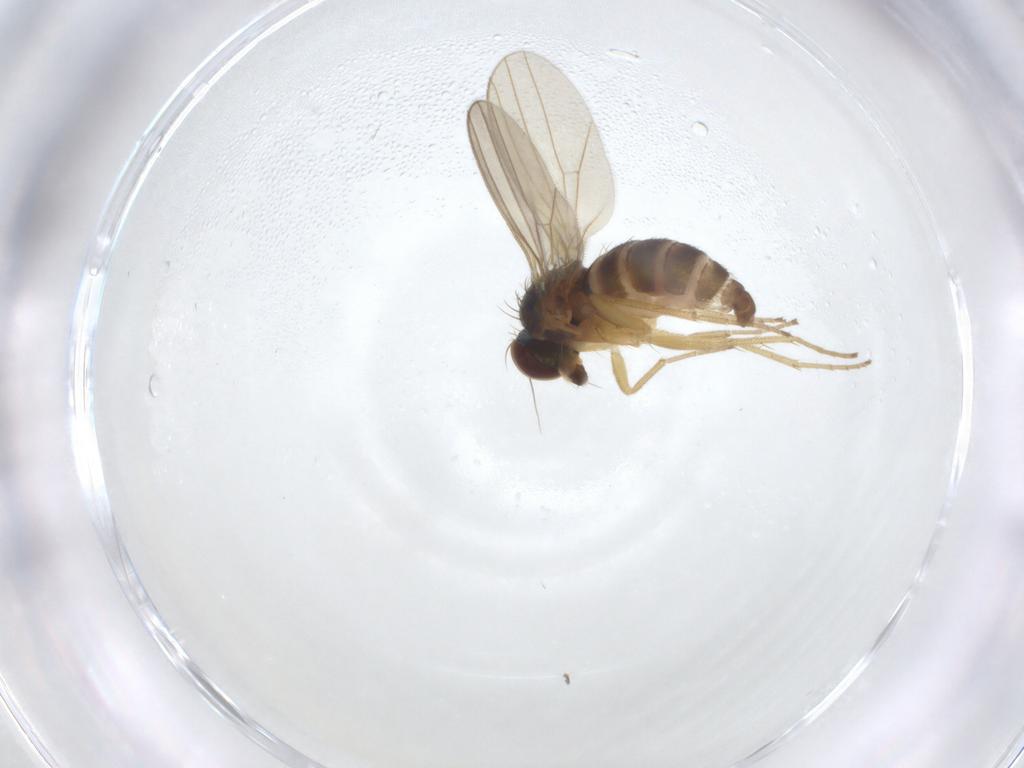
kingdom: Animalia
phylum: Arthropoda
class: Insecta
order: Diptera
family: Dolichopodidae
